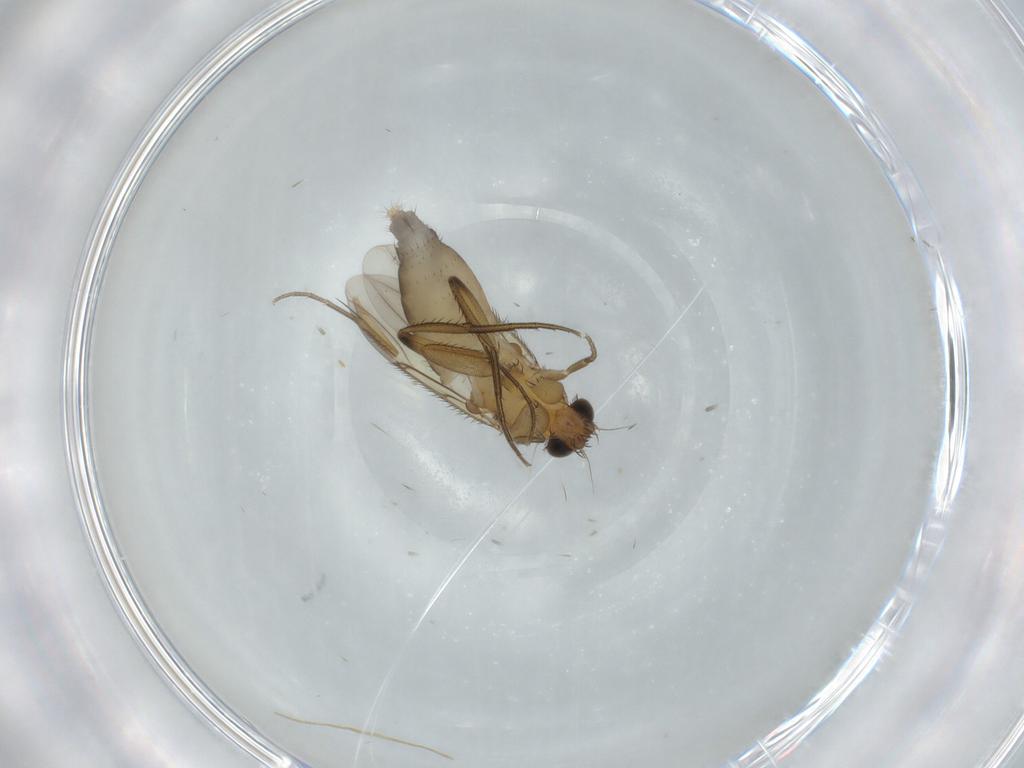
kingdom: Animalia
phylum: Arthropoda
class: Insecta
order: Diptera
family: Phoridae
